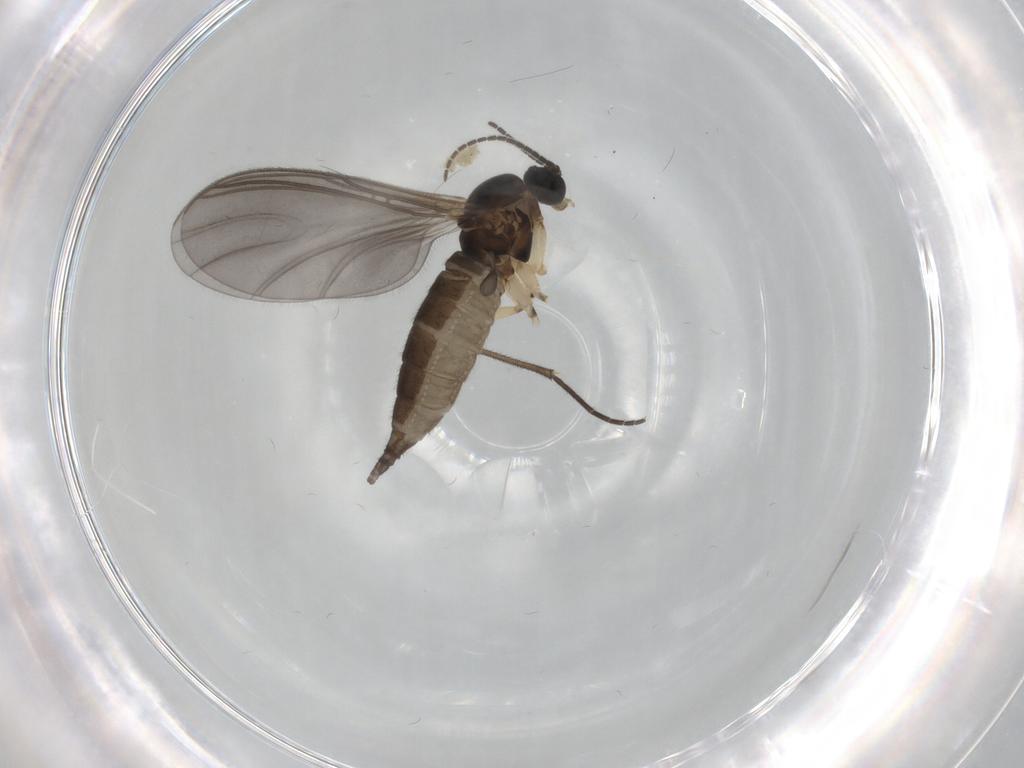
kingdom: Animalia
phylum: Arthropoda
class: Insecta
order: Diptera
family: Sciaridae
